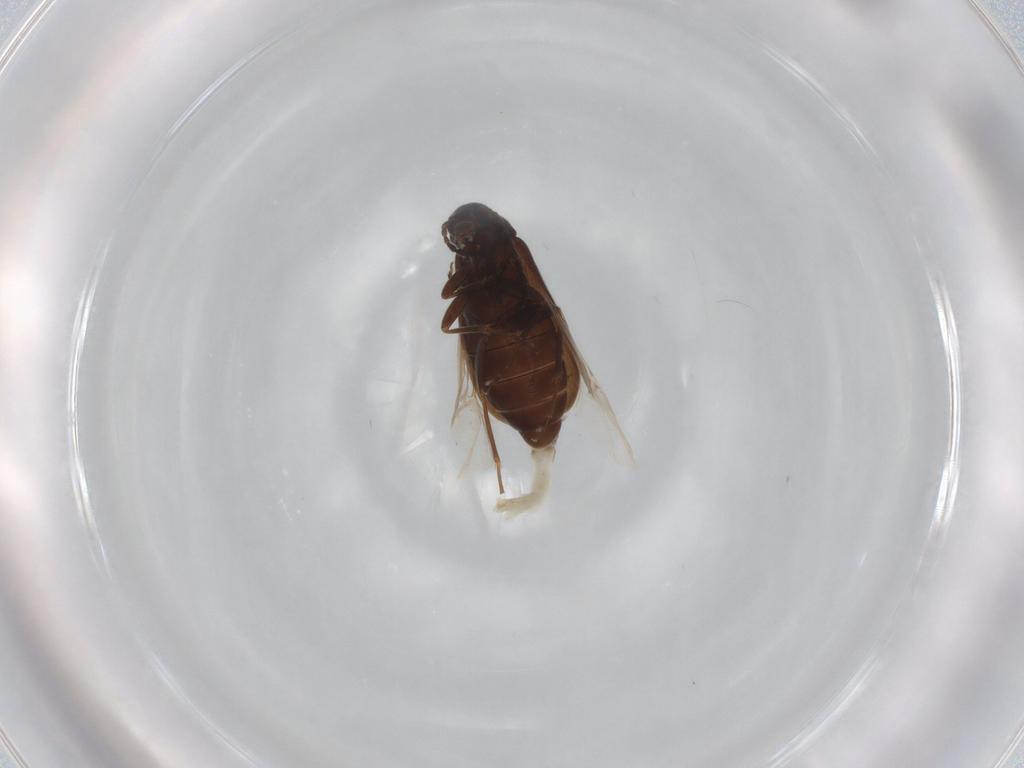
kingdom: Animalia
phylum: Arthropoda
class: Insecta
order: Coleoptera
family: Scraptiidae
